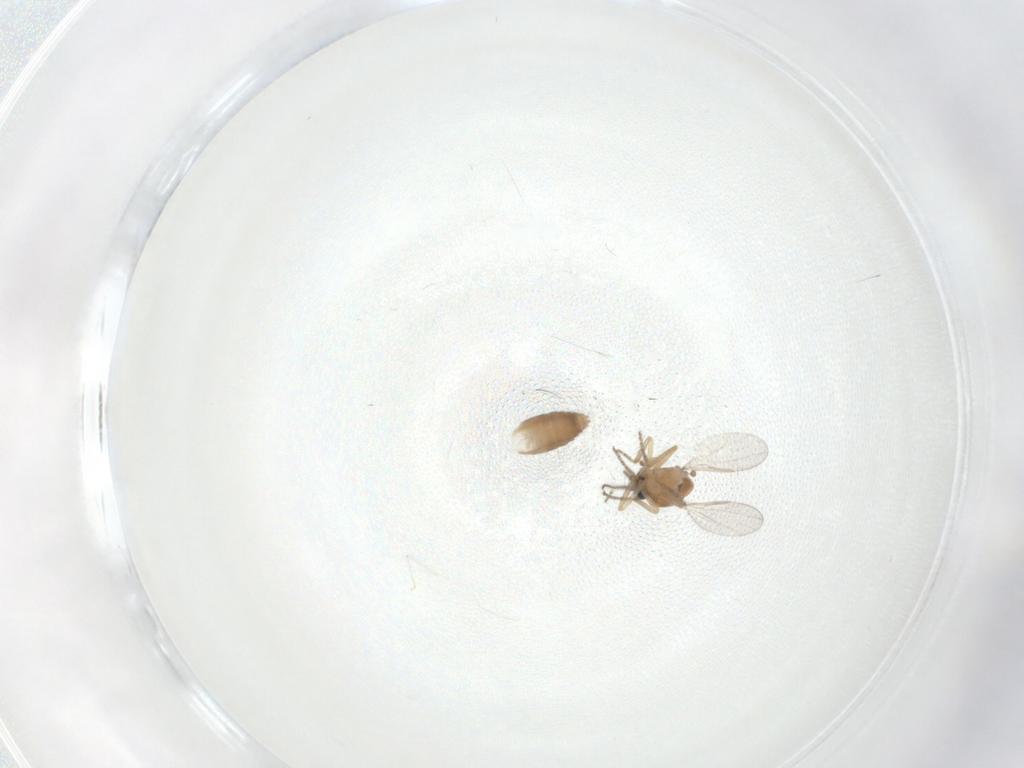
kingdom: Animalia
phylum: Arthropoda
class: Insecta
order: Diptera
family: Ceratopogonidae
